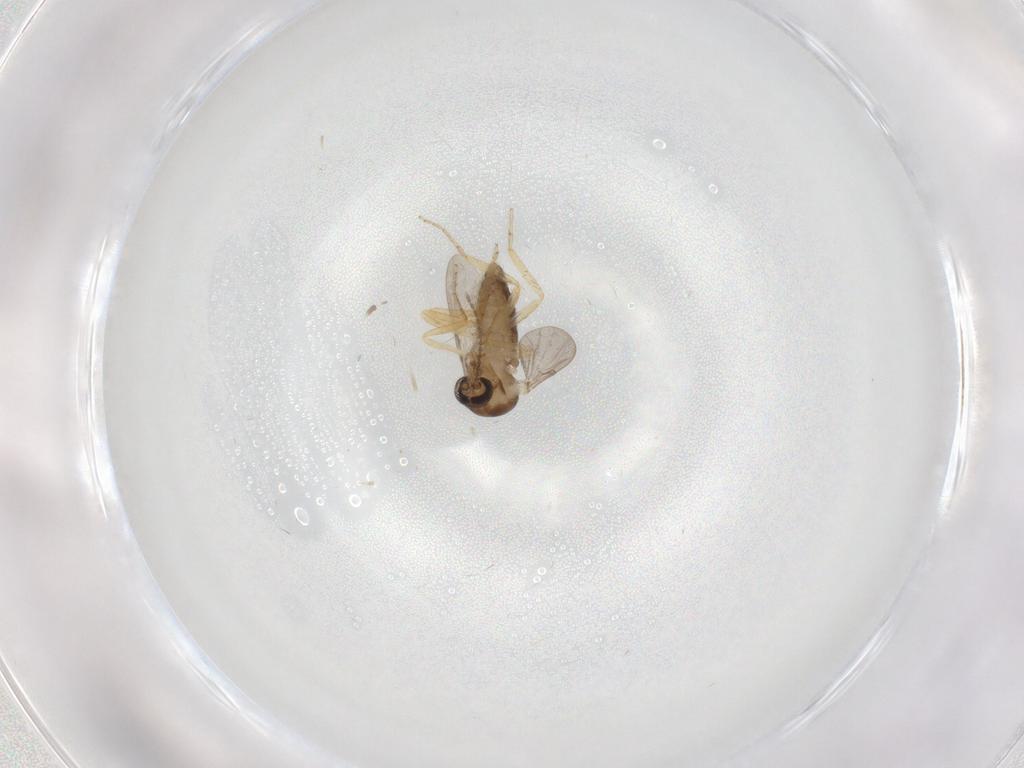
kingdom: Animalia
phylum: Arthropoda
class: Insecta
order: Diptera
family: Ceratopogonidae
